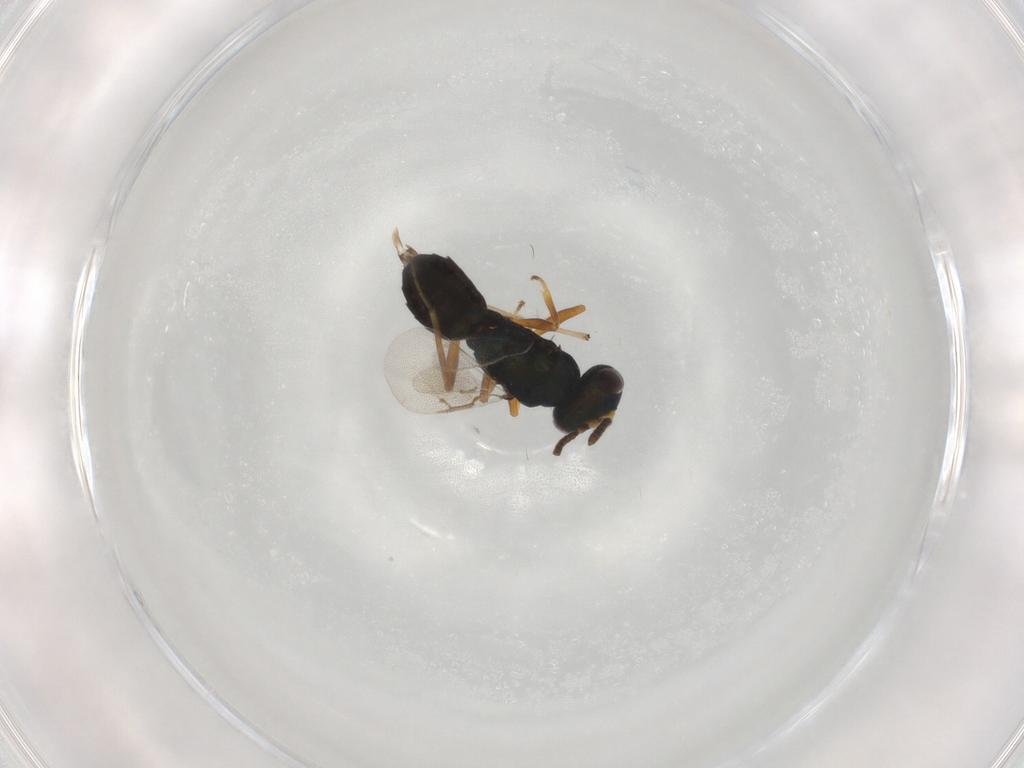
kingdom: Animalia
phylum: Arthropoda
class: Insecta
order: Hymenoptera
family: Pteromalidae
